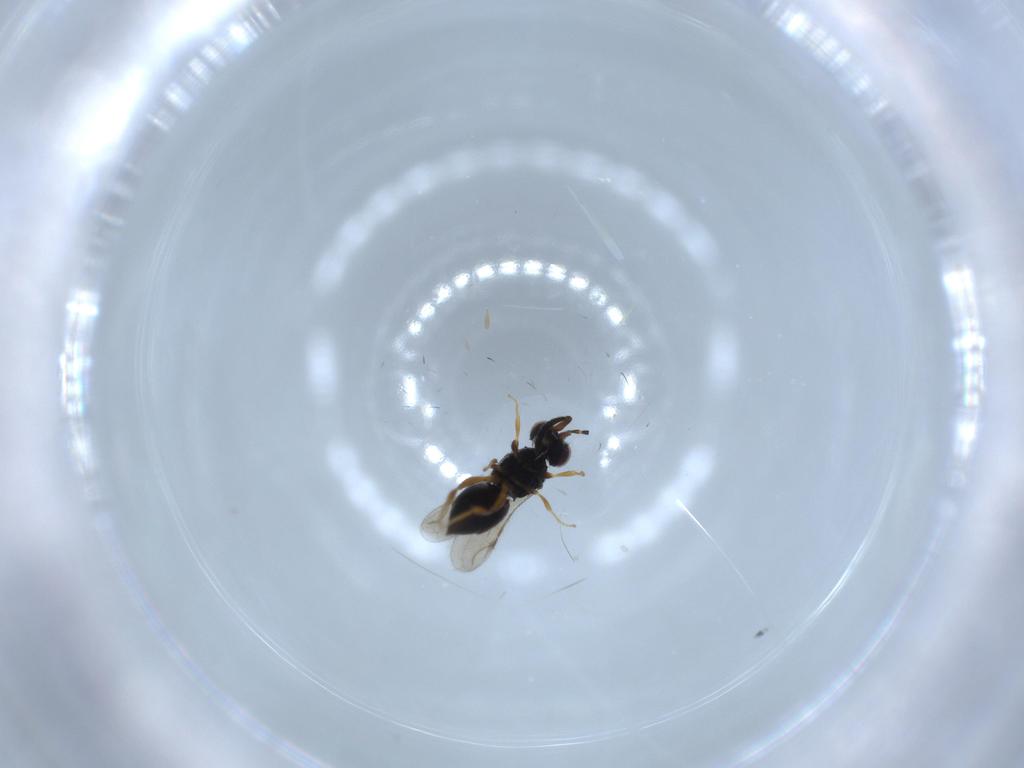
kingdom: Animalia
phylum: Arthropoda
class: Insecta
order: Hymenoptera
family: Ceraphronidae
